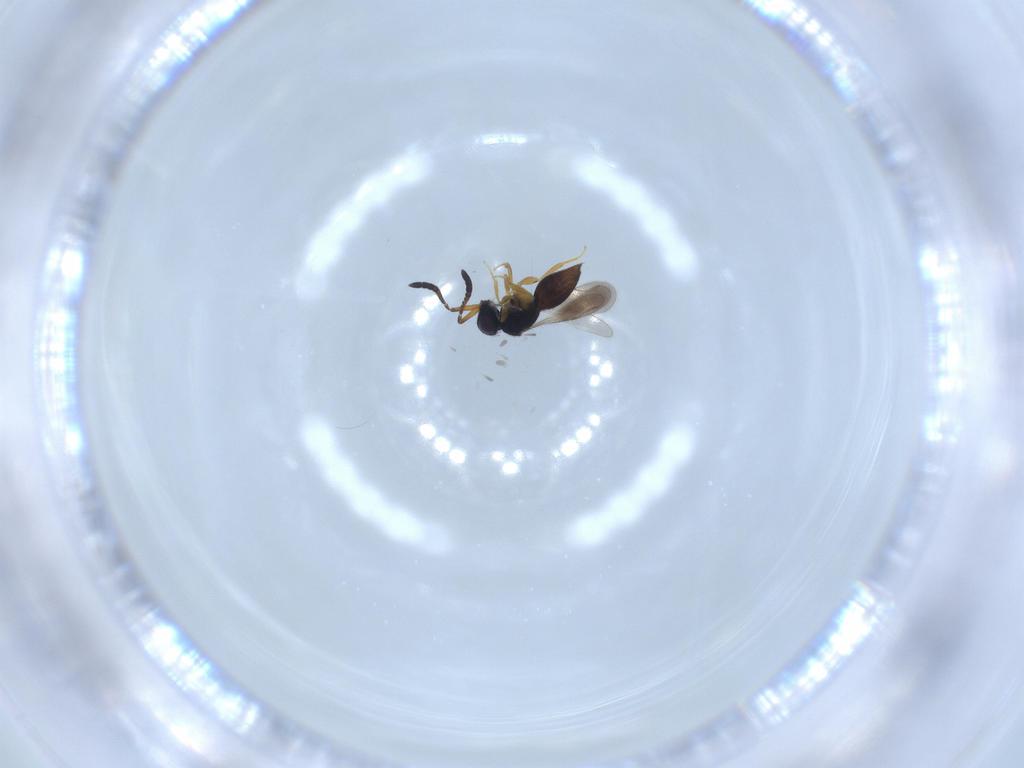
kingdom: Animalia
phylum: Arthropoda
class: Insecta
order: Hymenoptera
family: Ceraphronidae
